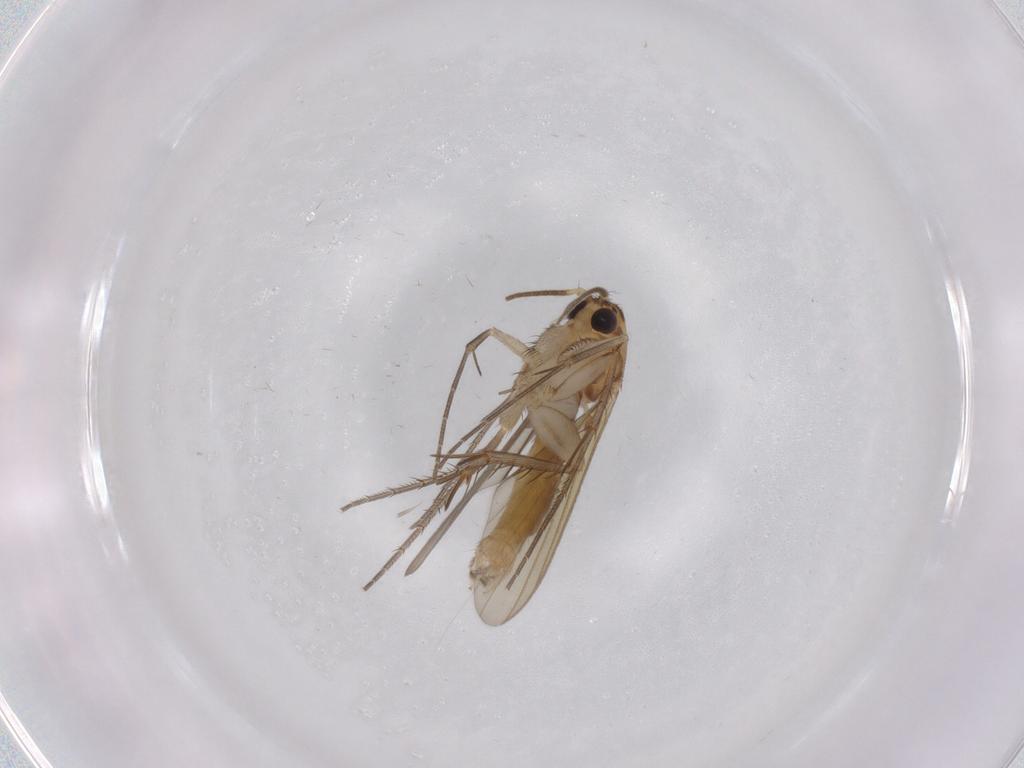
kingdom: Animalia
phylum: Arthropoda
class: Insecta
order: Diptera
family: Mycetophilidae
